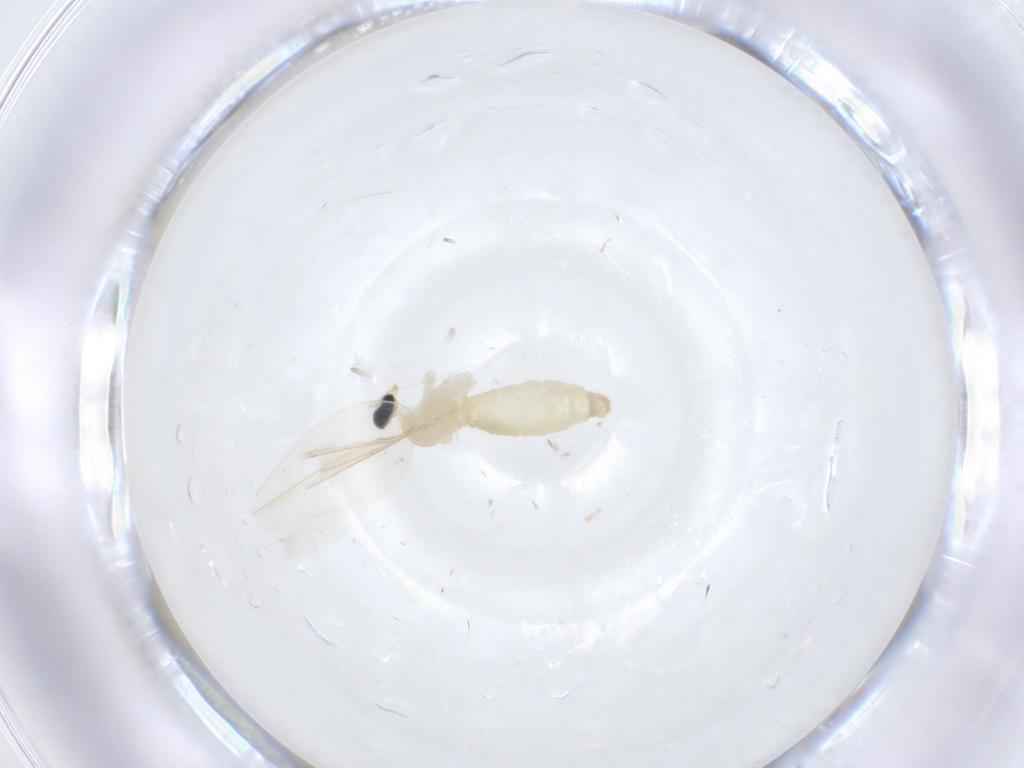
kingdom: Animalia
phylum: Arthropoda
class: Insecta
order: Diptera
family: Cecidomyiidae
